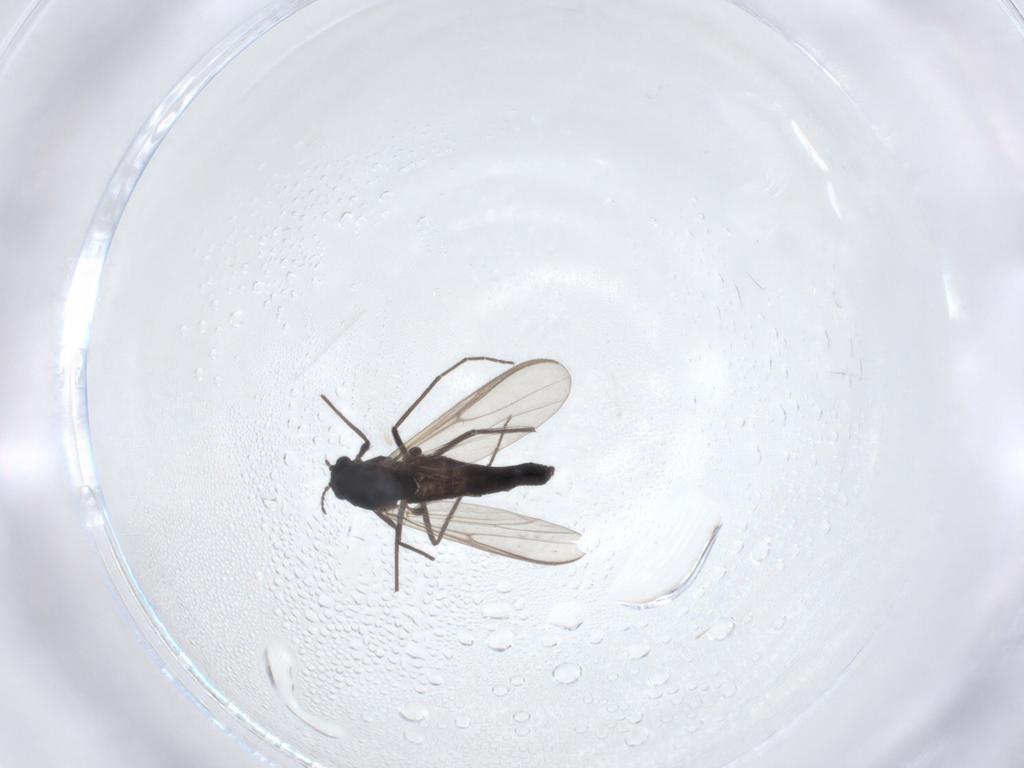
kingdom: Animalia
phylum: Arthropoda
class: Insecta
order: Diptera
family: Chironomidae
